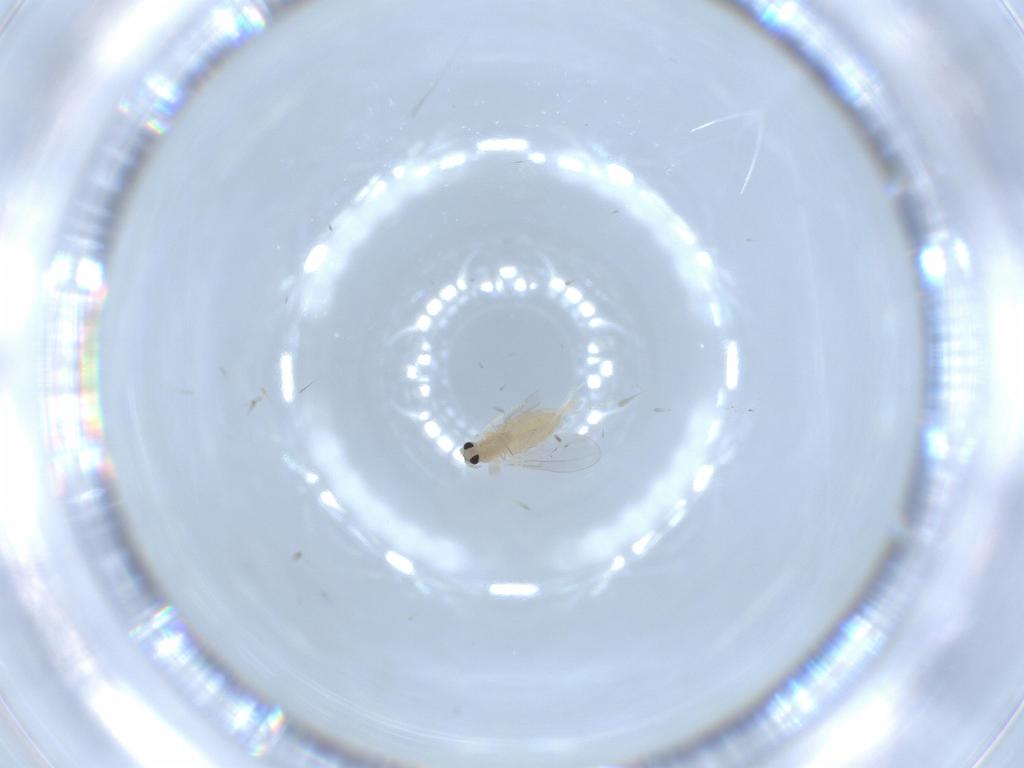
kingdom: Animalia
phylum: Arthropoda
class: Insecta
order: Diptera
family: Cecidomyiidae
